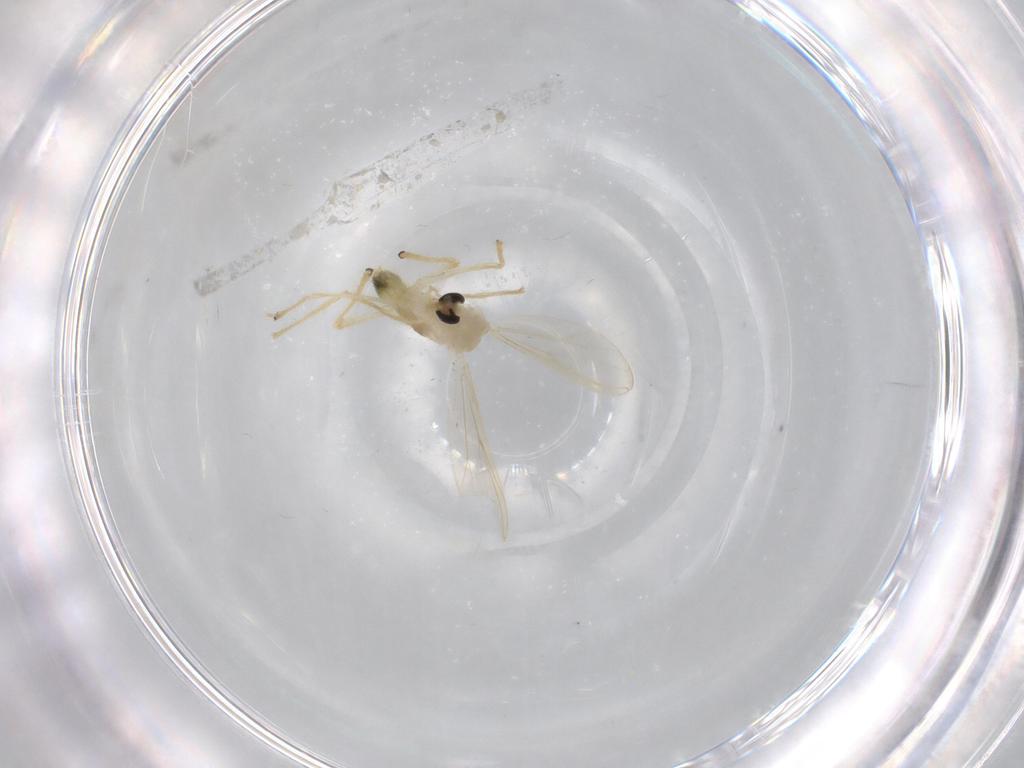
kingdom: Animalia
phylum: Arthropoda
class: Insecta
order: Diptera
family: Chironomidae
